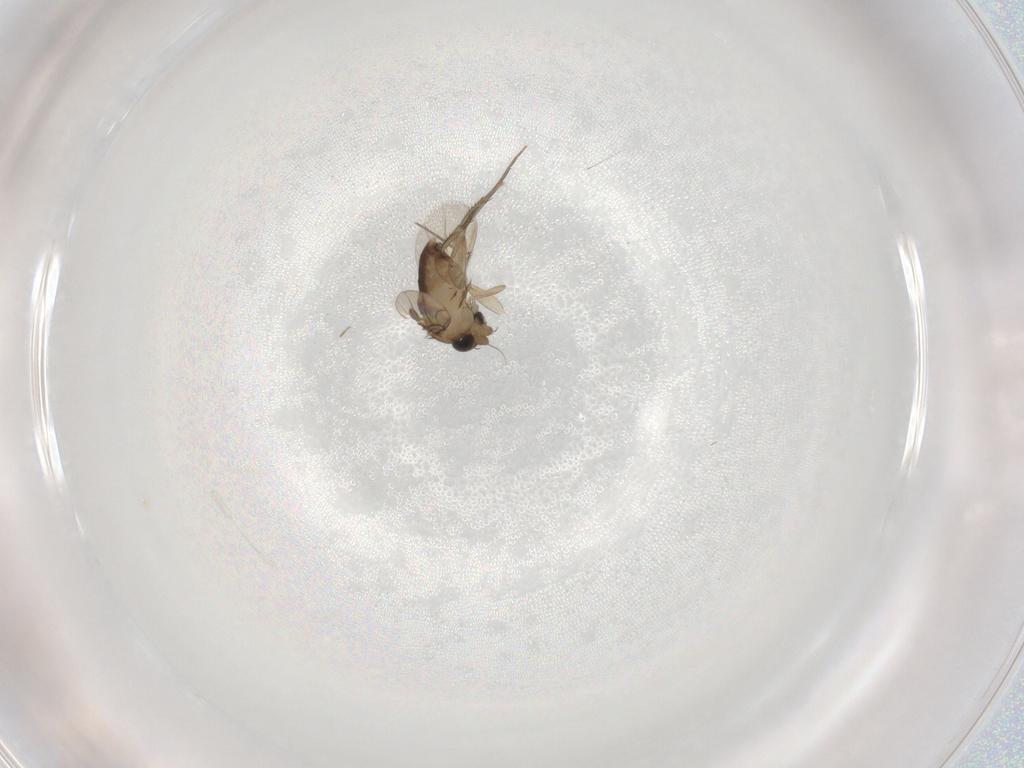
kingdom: Animalia
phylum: Arthropoda
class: Insecta
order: Diptera
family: Phoridae
